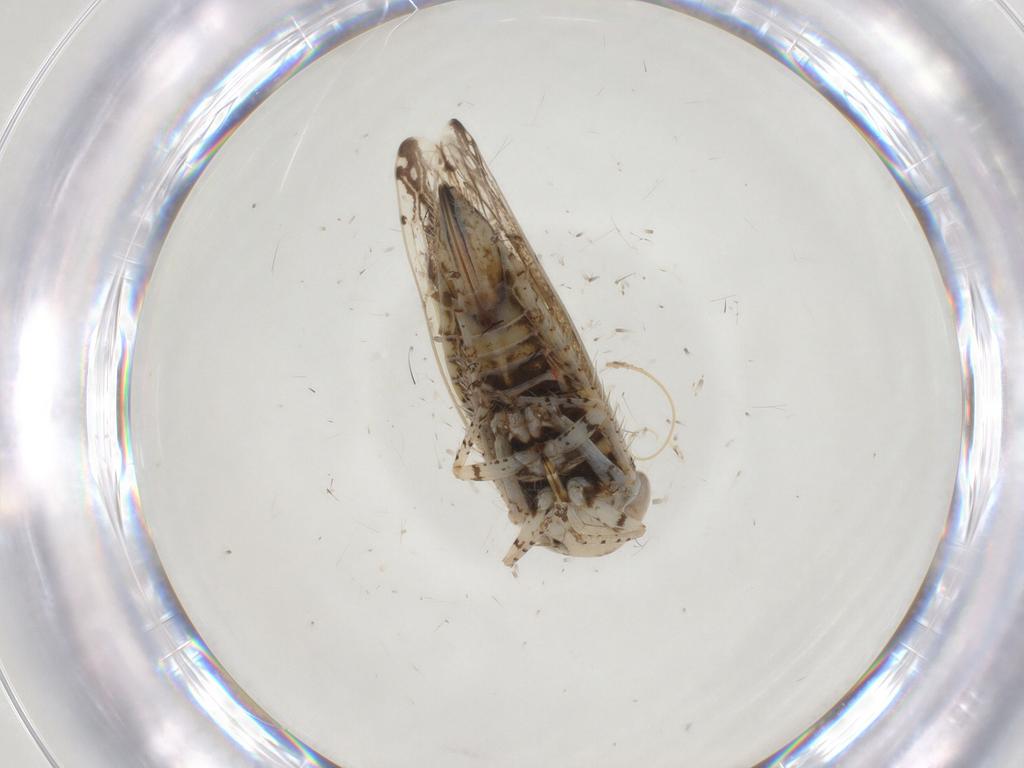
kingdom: Animalia
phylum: Arthropoda
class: Insecta
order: Hemiptera
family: Cicadellidae
